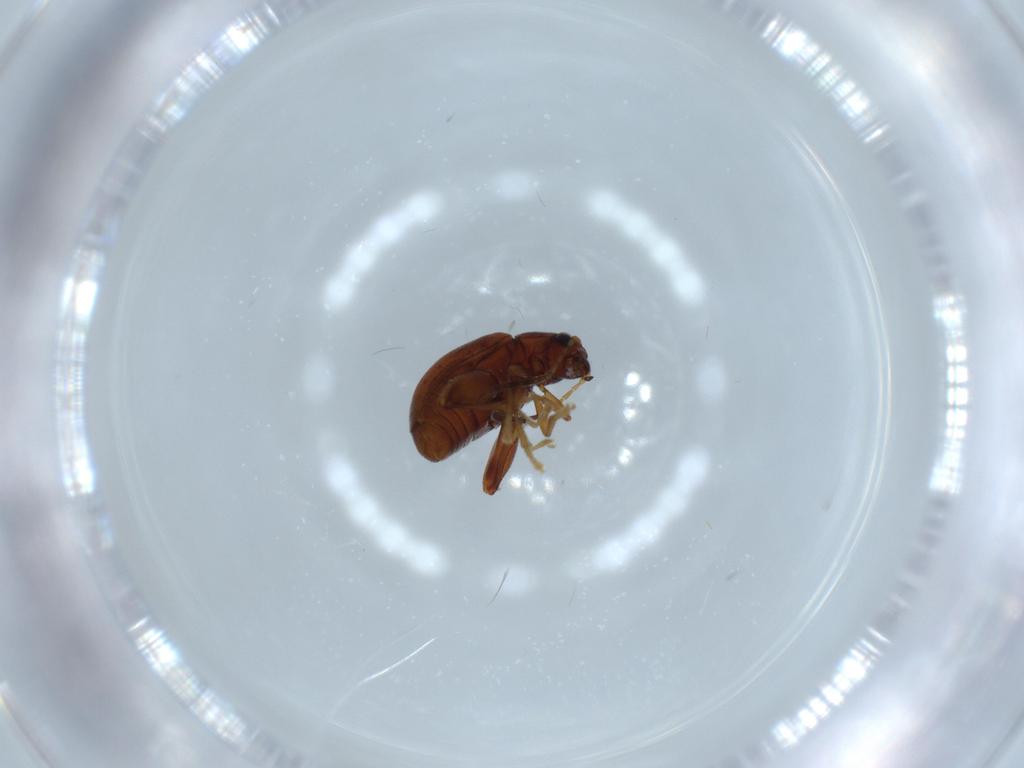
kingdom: Animalia
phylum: Arthropoda
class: Insecta
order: Coleoptera
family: Chrysomelidae
